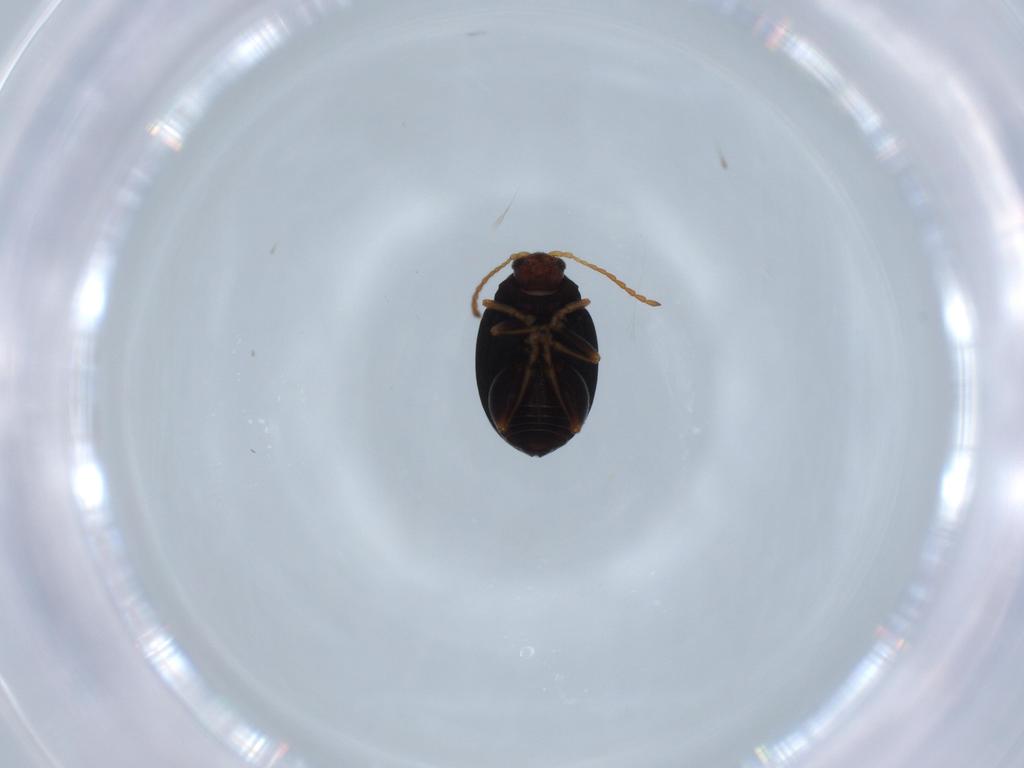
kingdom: Animalia
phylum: Arthropoda
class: Insecta
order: Coleoptera
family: Chrysomelidae
